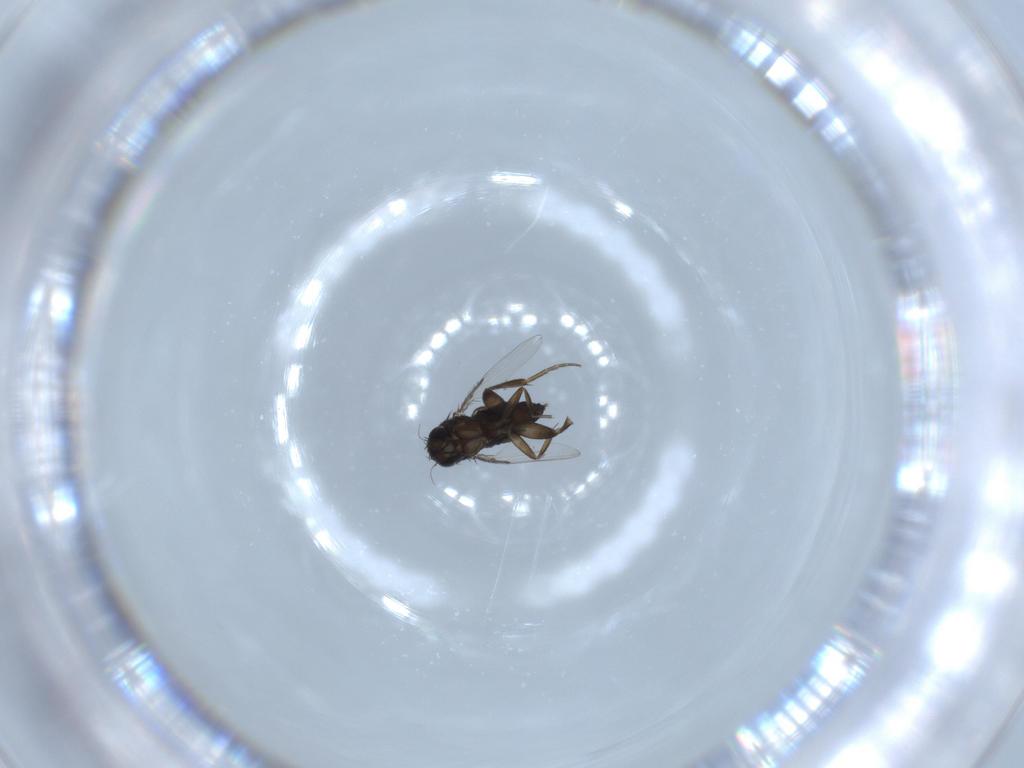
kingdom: Animalia
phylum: Arthropoda
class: Insecta
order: Diptera
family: Phoridae
